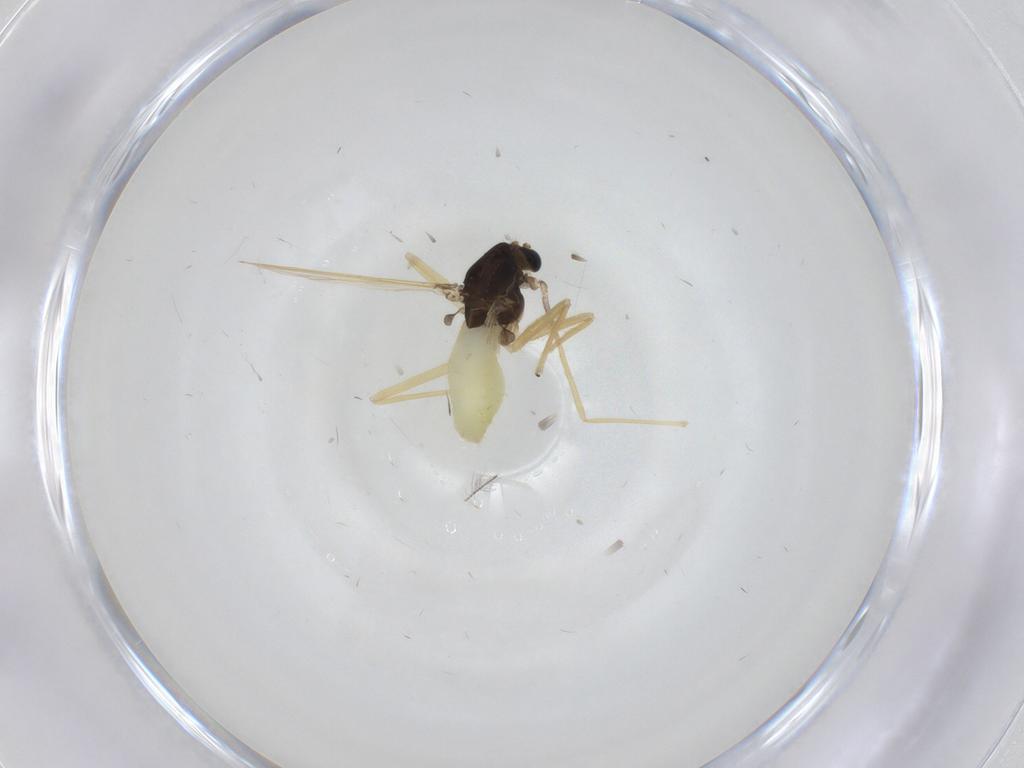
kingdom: Animalia
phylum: Arthropoda
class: Insecta
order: Diptera
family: Chironomidae
